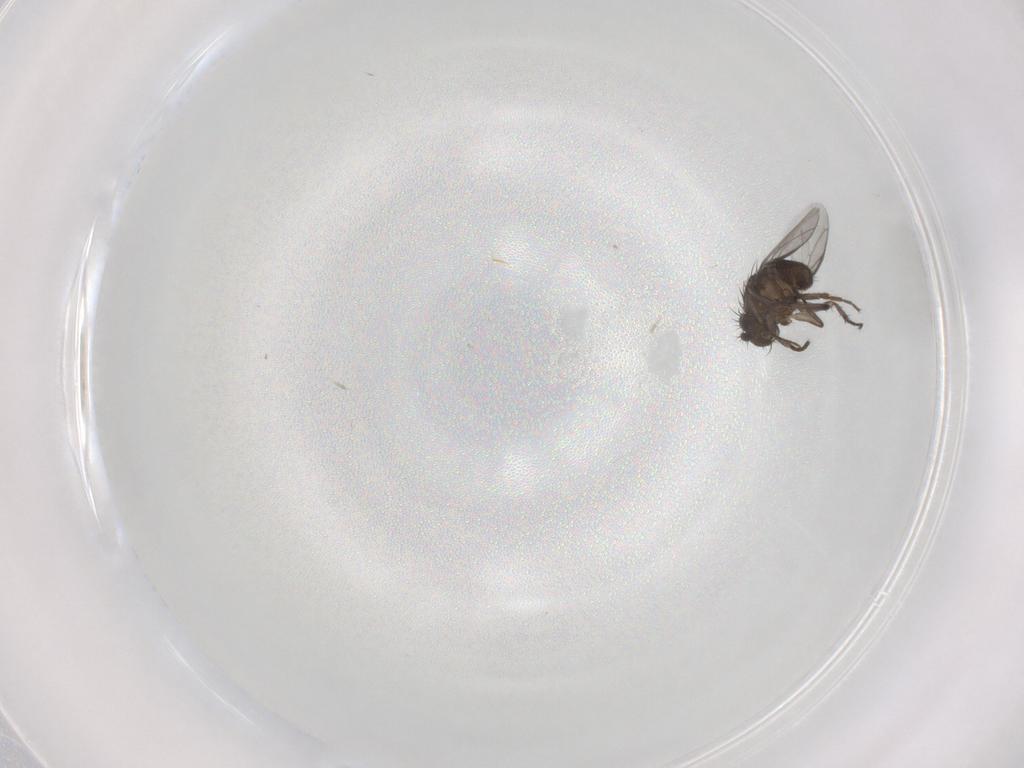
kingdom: Animalia
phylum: Arthropoda
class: Insecta
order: Diptera
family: Sphaeroceridae
